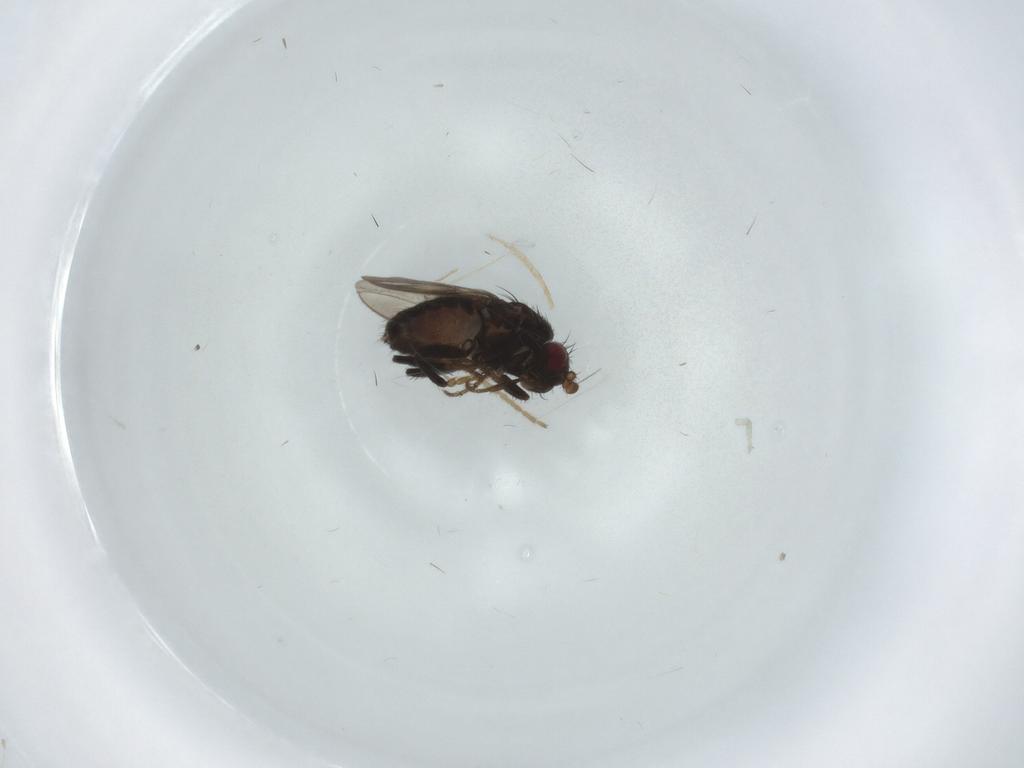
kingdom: Animalia
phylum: Arthropoda
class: Insecta
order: Diptera
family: Sphaeroceridae
